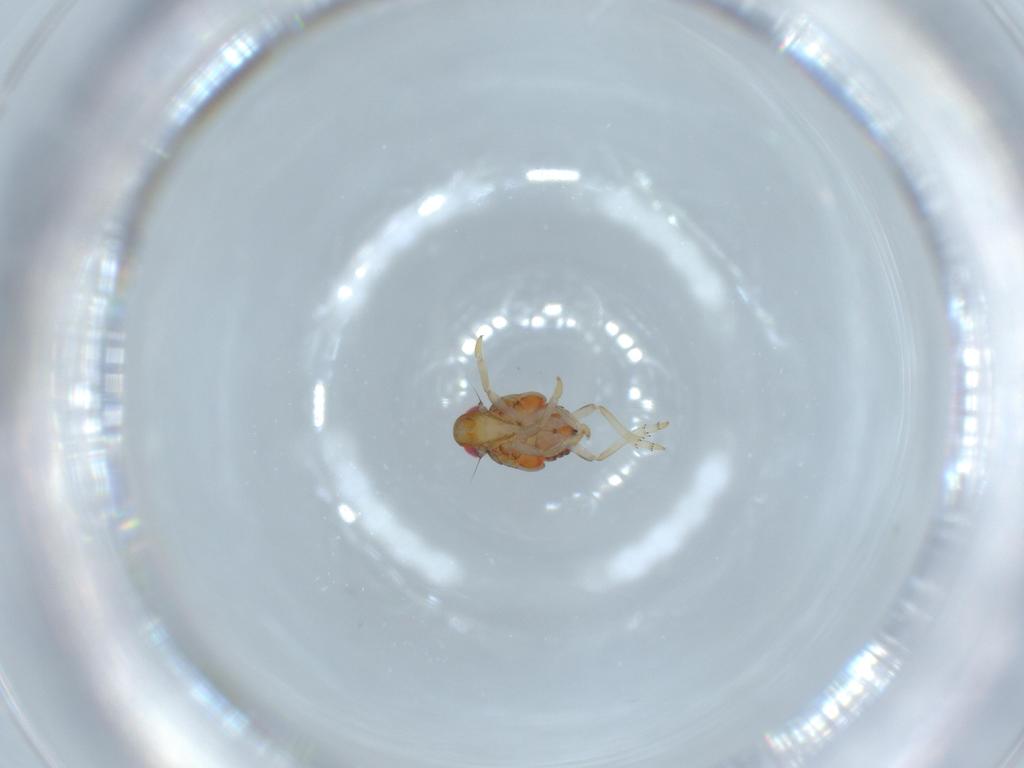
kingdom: Animalia
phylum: Arthropoda
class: Insecta
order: Hemiptera
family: Issidae
